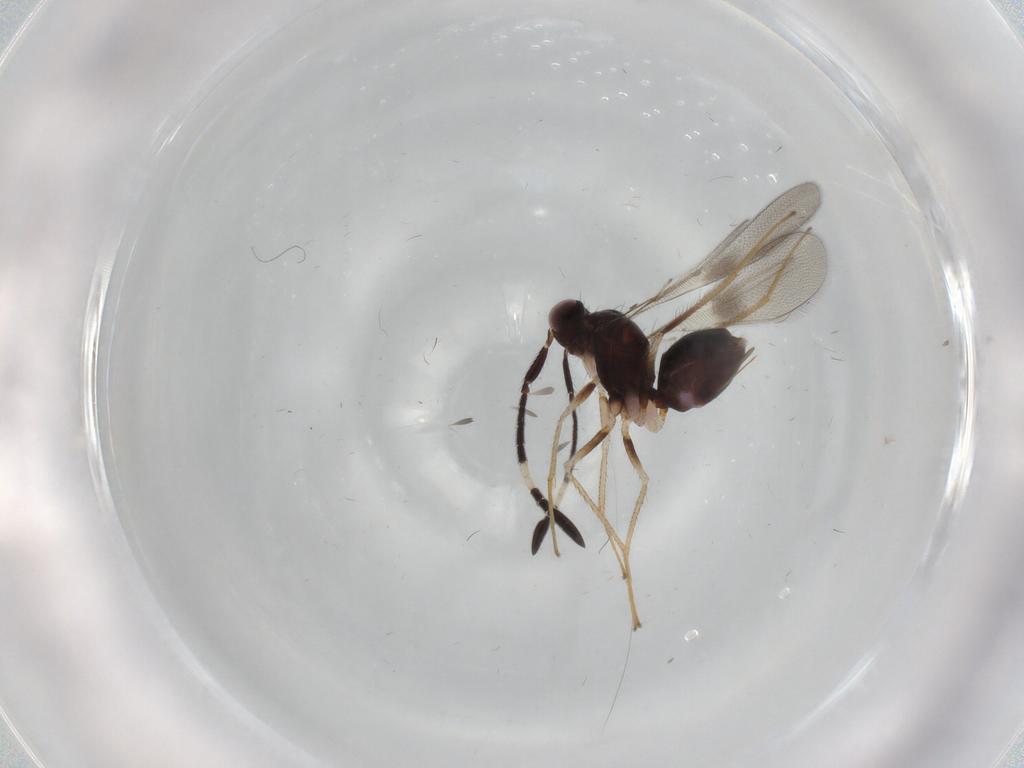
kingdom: Animalia
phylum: Arthropoda
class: Insecta
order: Hymenoptera
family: Mymaridae
